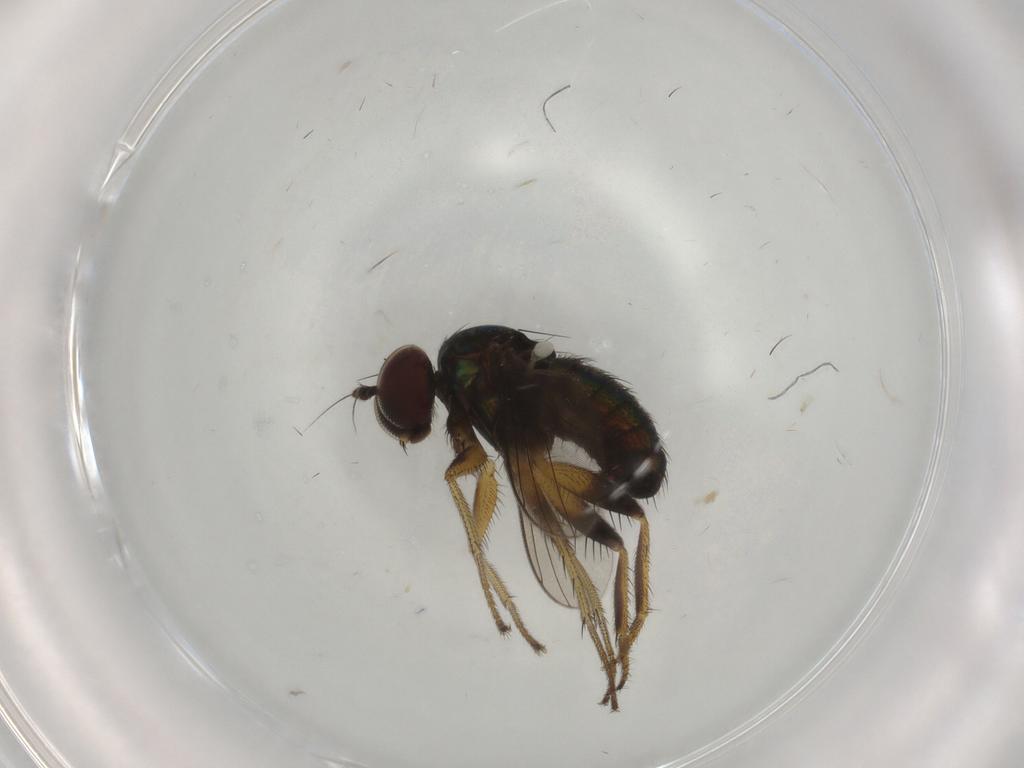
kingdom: Animalia
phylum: Arthropoda
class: Insecta
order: Diptera
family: Dolichopodidae
